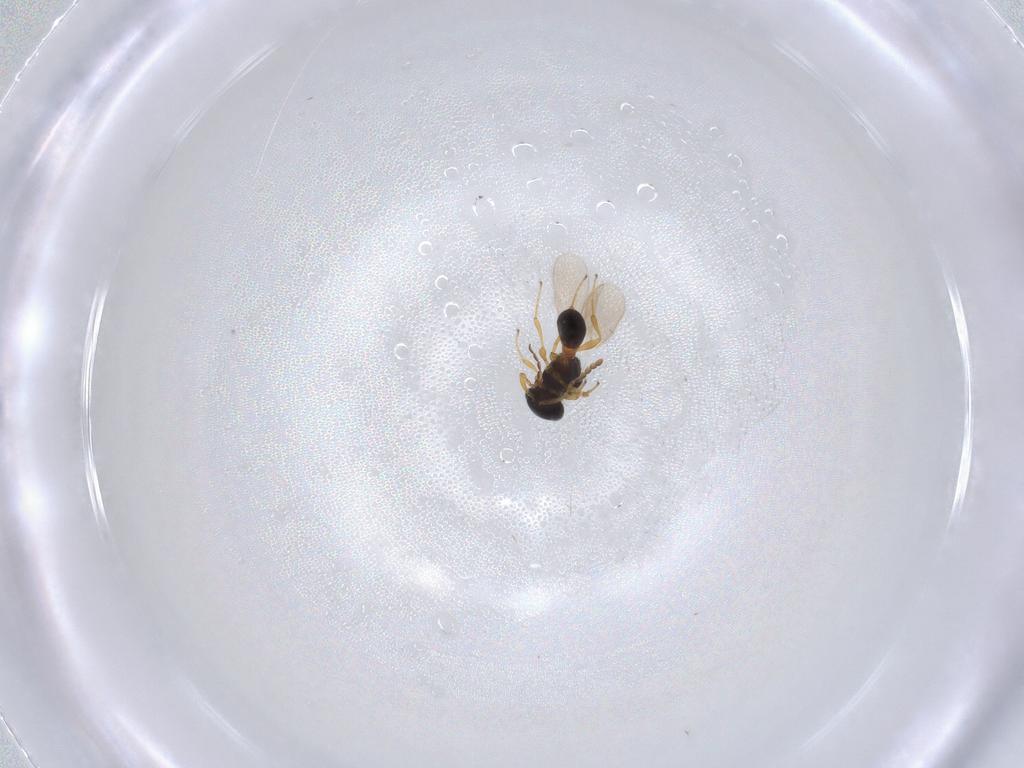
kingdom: Animalia
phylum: Arthropoda
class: Insecta
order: Hymenoptera
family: Platygastridae
